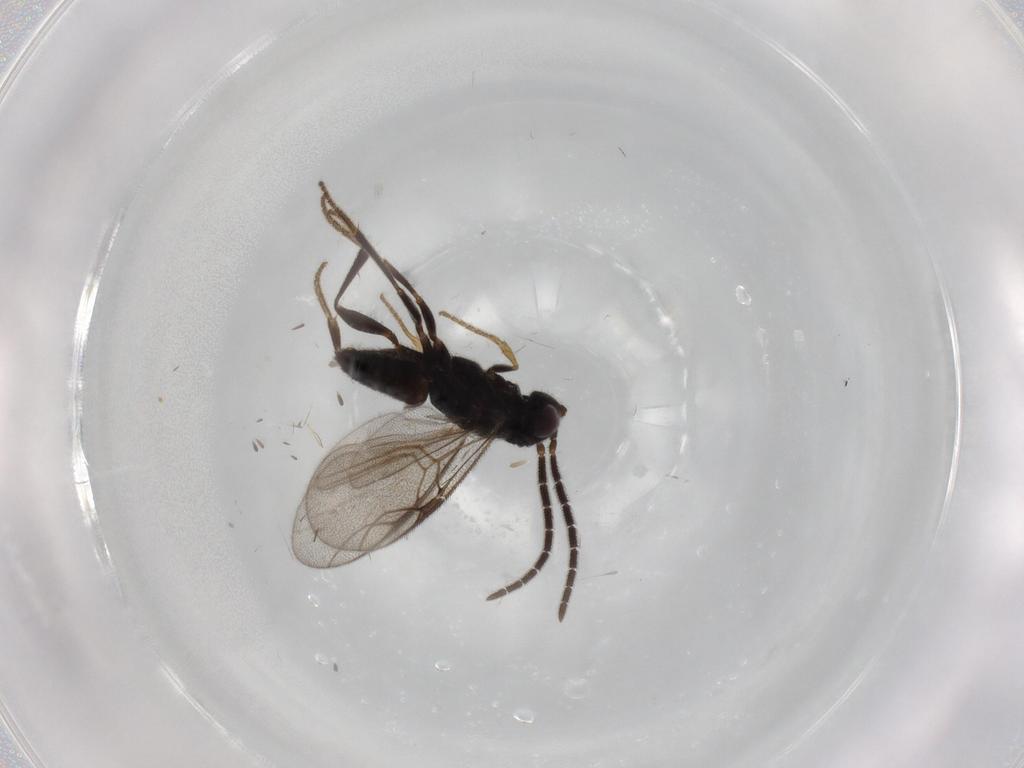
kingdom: Animalia
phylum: Arthropoda
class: Insecta
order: Hymenoptera
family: Dryinidae
